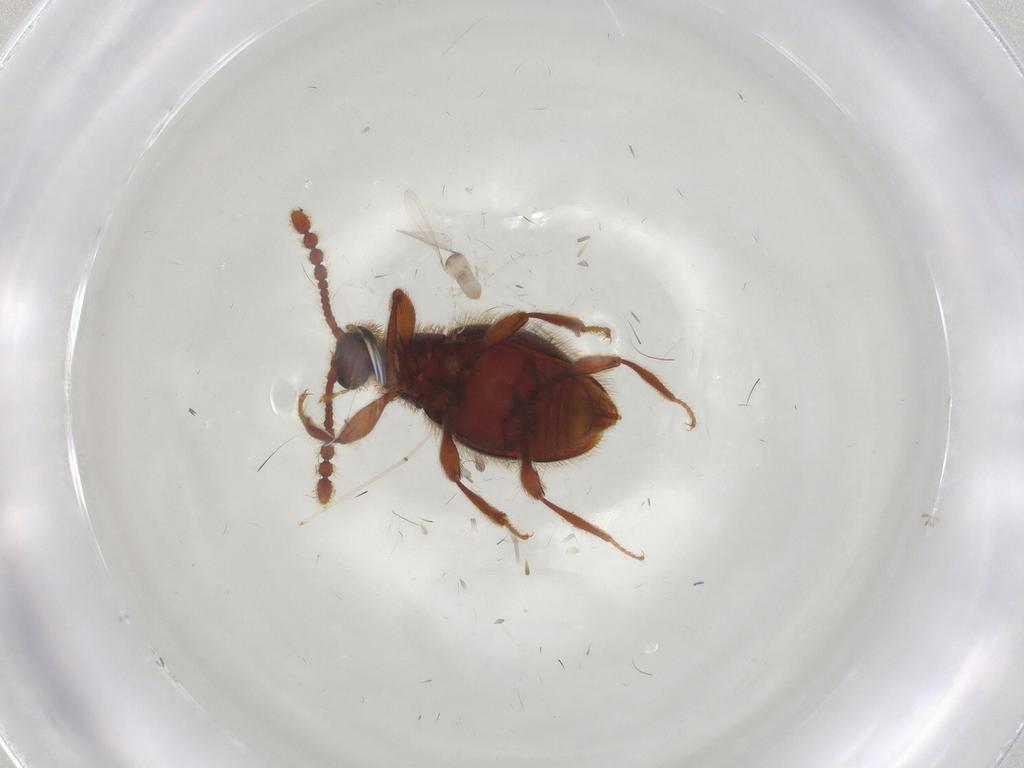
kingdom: Animalia
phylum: Arthropoda
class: Insecta
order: Diptera
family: Cecidomyiidae
